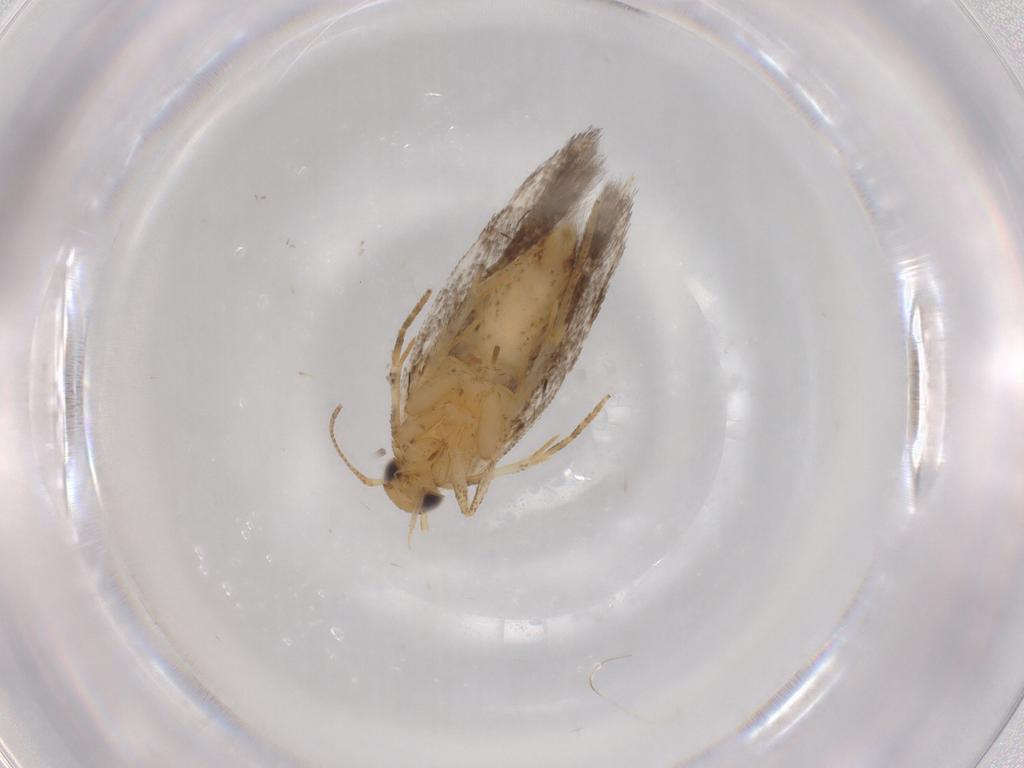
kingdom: Animalia
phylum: Arthropoda
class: Insecta
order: Lepidoptera
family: Gelechiidae
